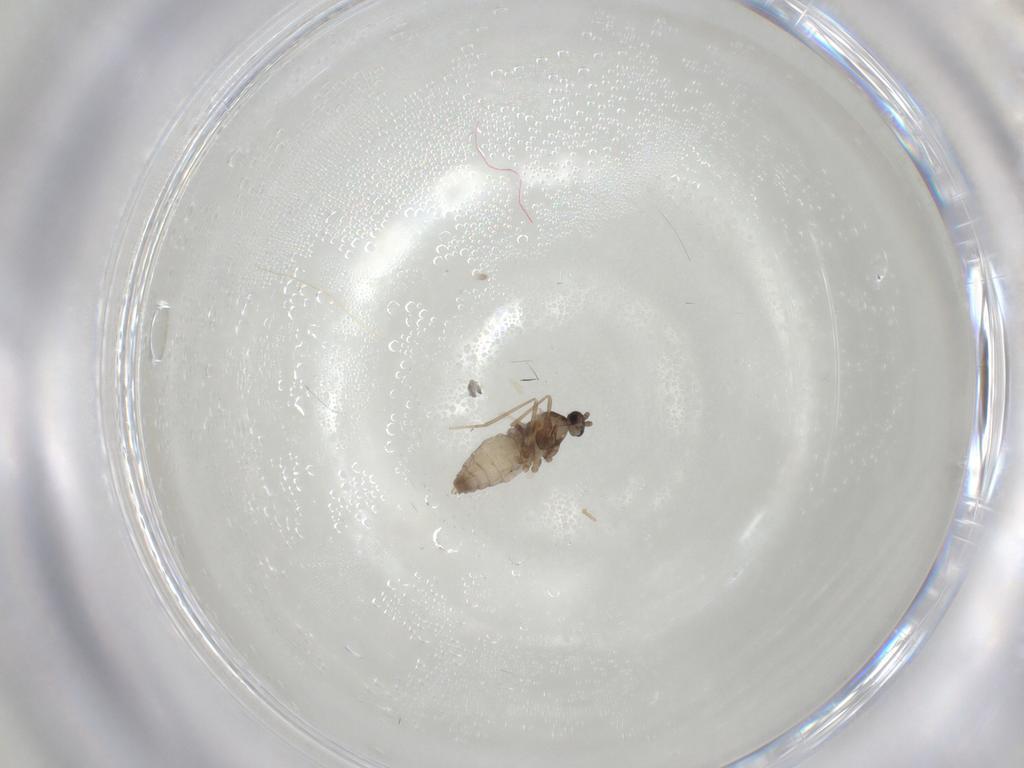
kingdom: Animalia
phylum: Arthropoda
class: Insecta
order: Diptera
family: Cecidomyiidae
